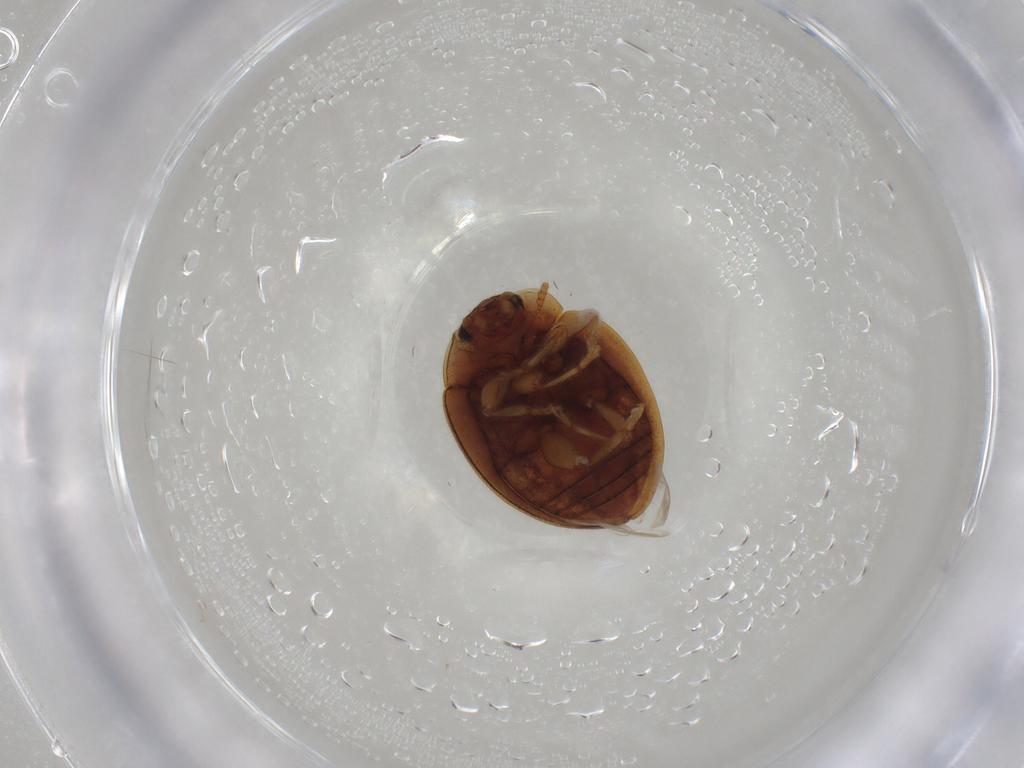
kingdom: Animalia
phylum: Arthropoda
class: Insecta
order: Coleoptera
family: Coccinellidae
